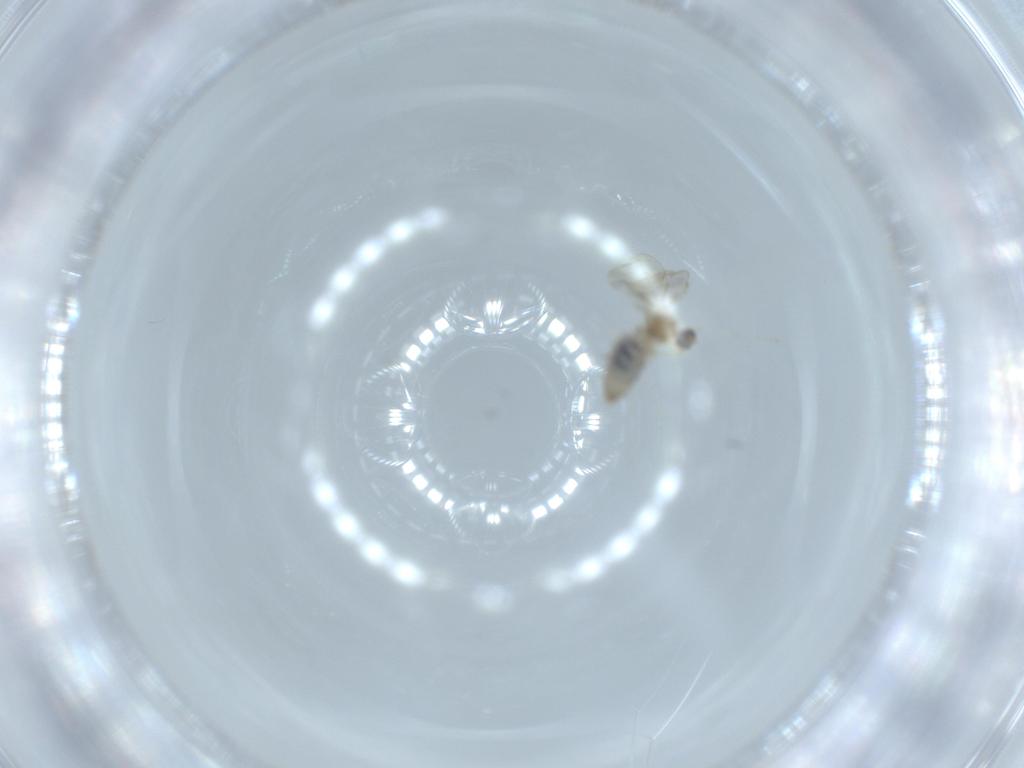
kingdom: Animalia
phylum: Arthropoda
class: Insecta
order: Diptera
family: Cecidomyiidae
